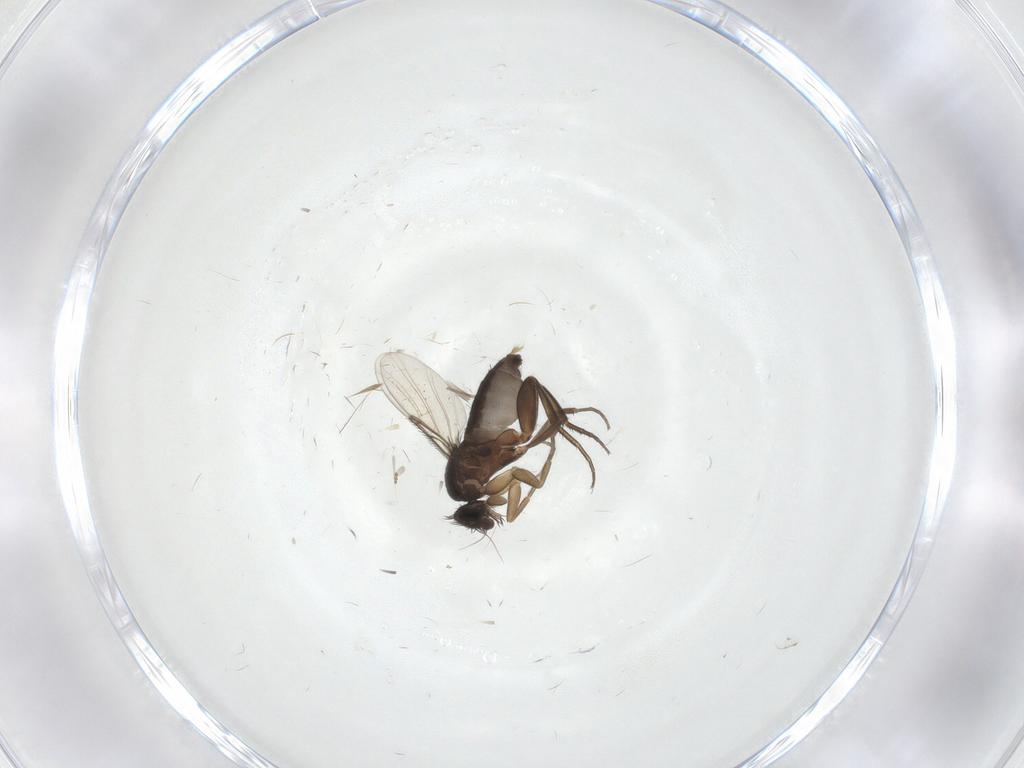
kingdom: Animalia
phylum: Arthropoda
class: Insecta
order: Diptera
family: Phoridae
